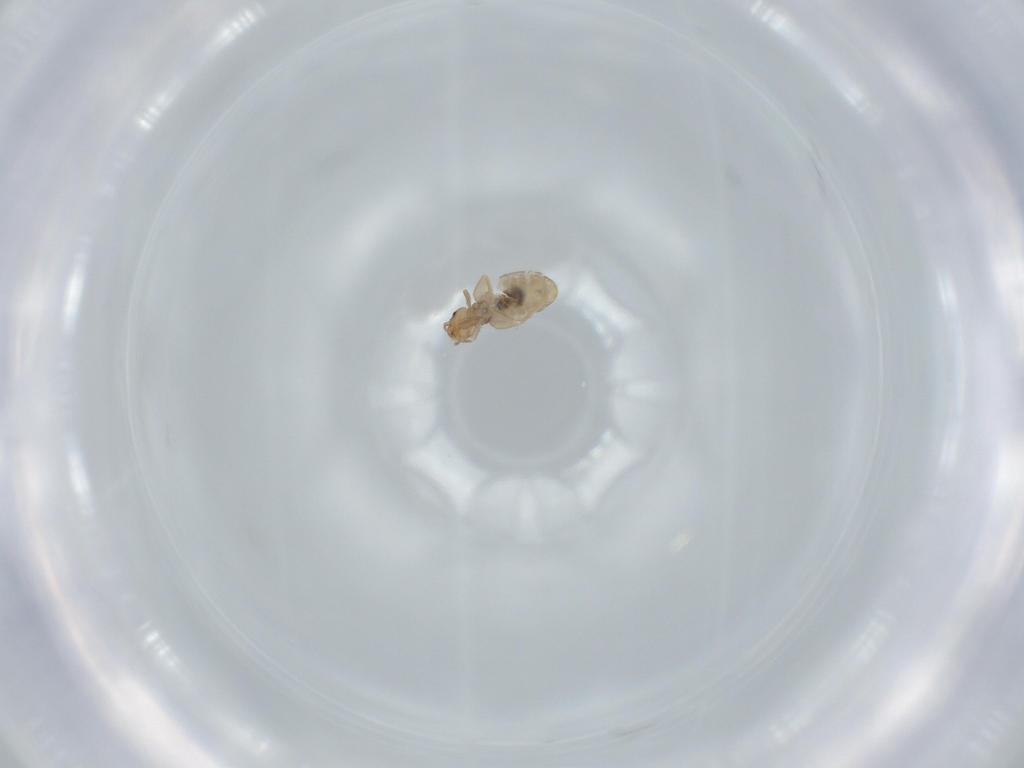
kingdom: Animalia
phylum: Arthropoda
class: Insecta
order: Psocodea
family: Liposcelididae
